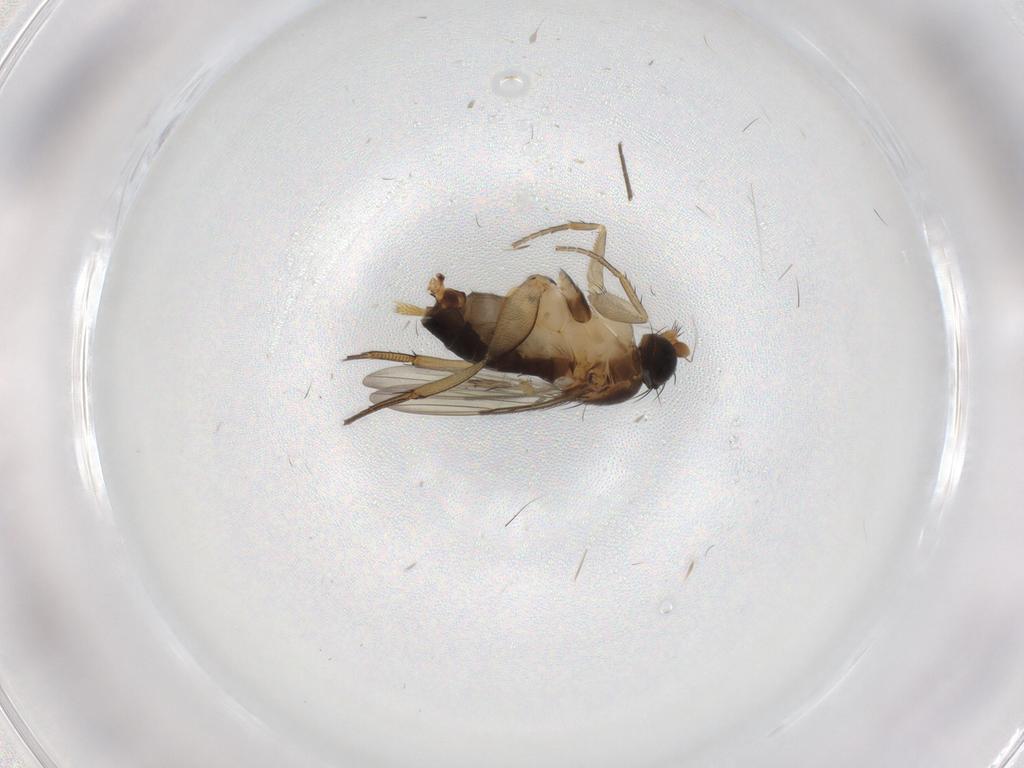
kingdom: Animalia
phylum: Arthropoda
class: Insecta
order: Diptera
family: Phoridae
